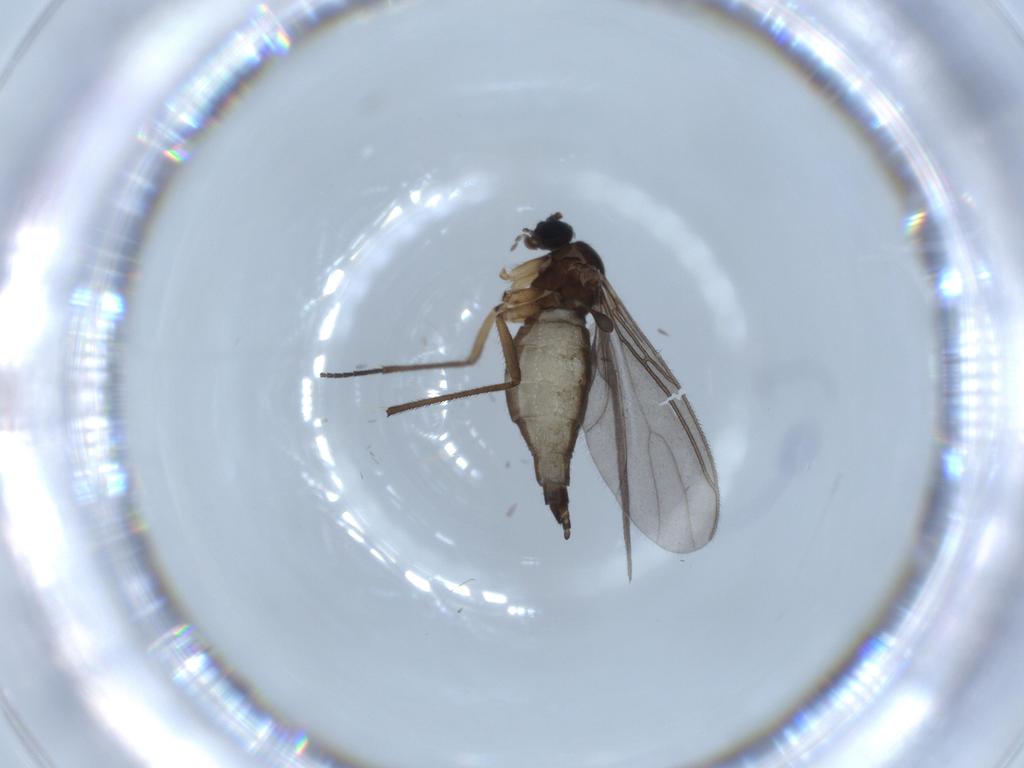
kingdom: Animalia
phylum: Arthropoda
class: Insecta
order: Diptera
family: Sciaridae
